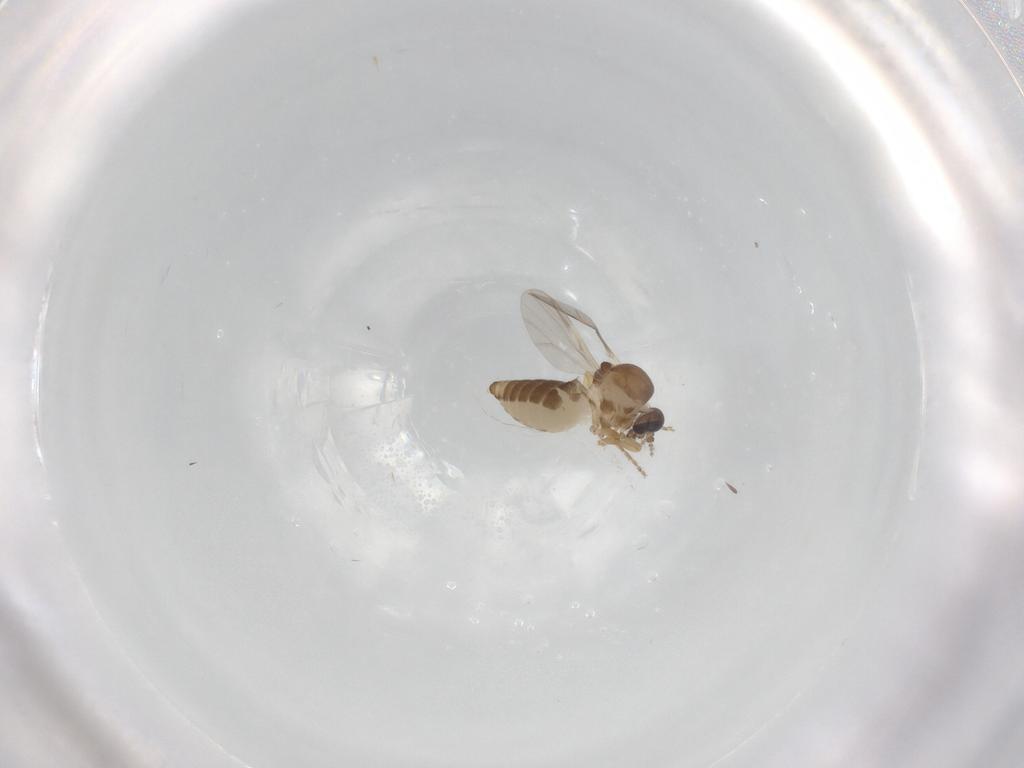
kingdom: Animalia
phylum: Arthropoda
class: Insecta
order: Diptera
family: Ceratopogonidae
